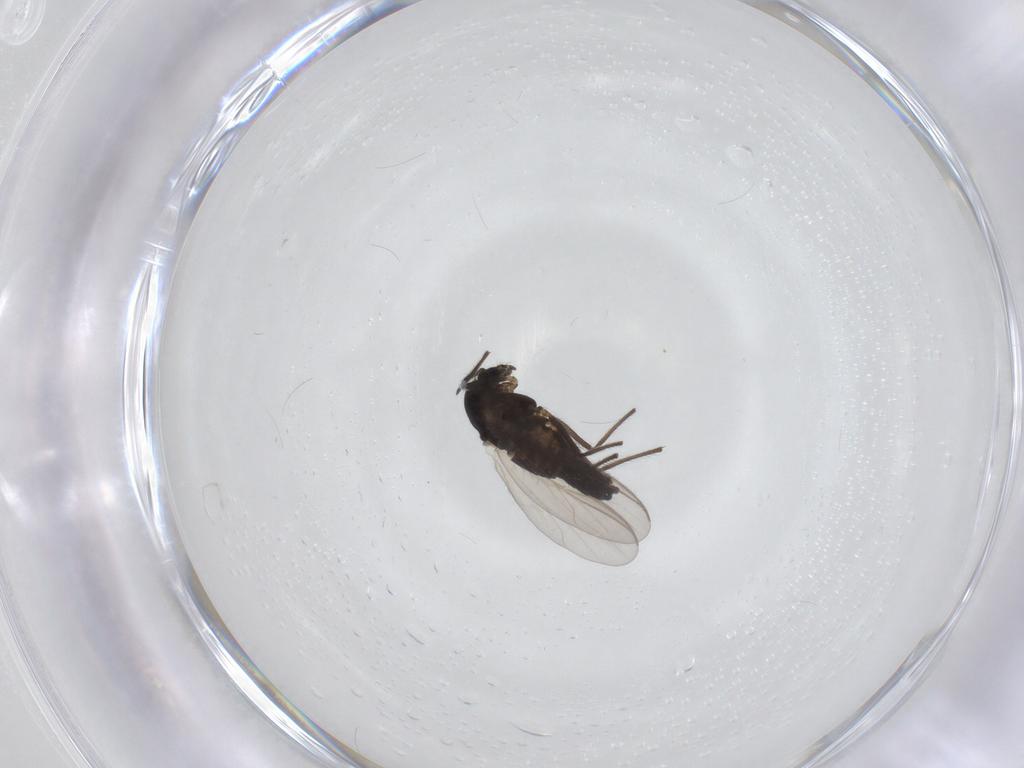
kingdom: Animalia
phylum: Arthropoda
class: Insecta
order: Diptera
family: Chironomidae
